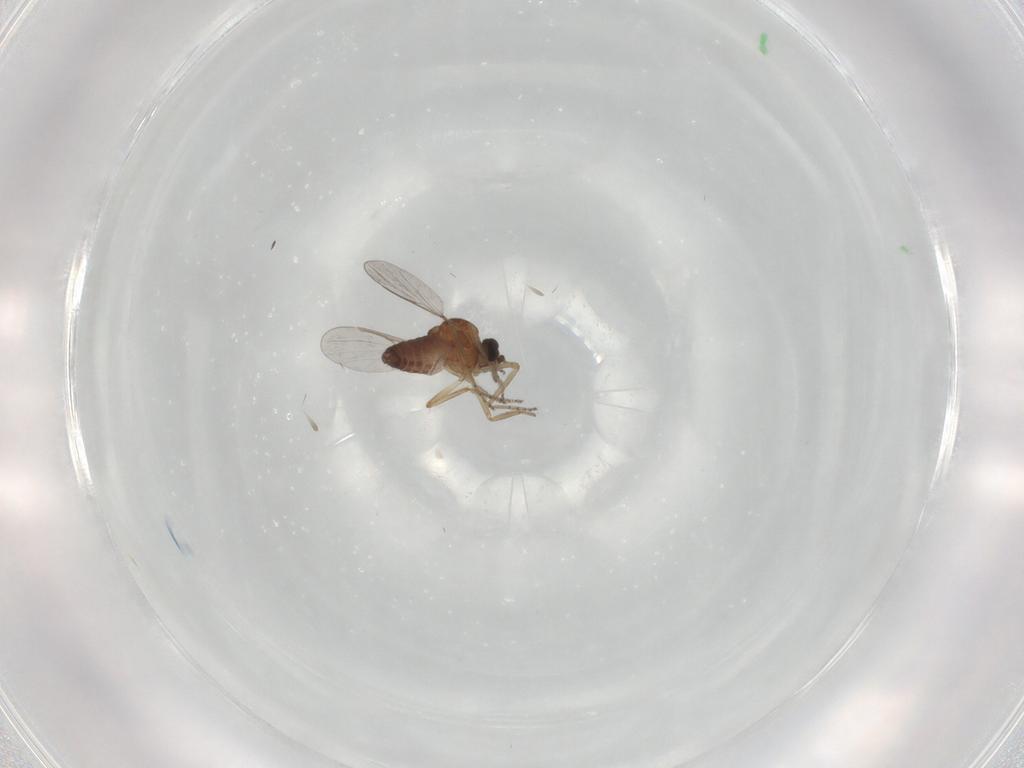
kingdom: Animalia
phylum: Arthropoda
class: Insecta
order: Diptera
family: Ceratopogonidae
